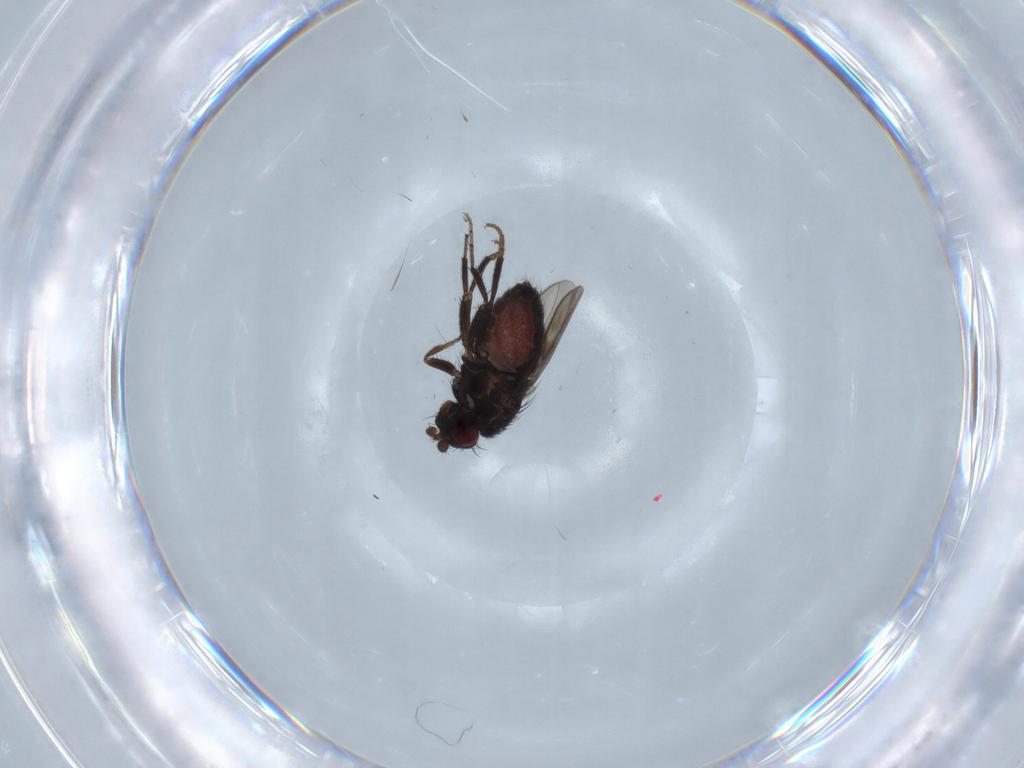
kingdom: Animalia
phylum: Arthropoda
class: Insecta
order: Diptera
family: Sphaeroceridae
